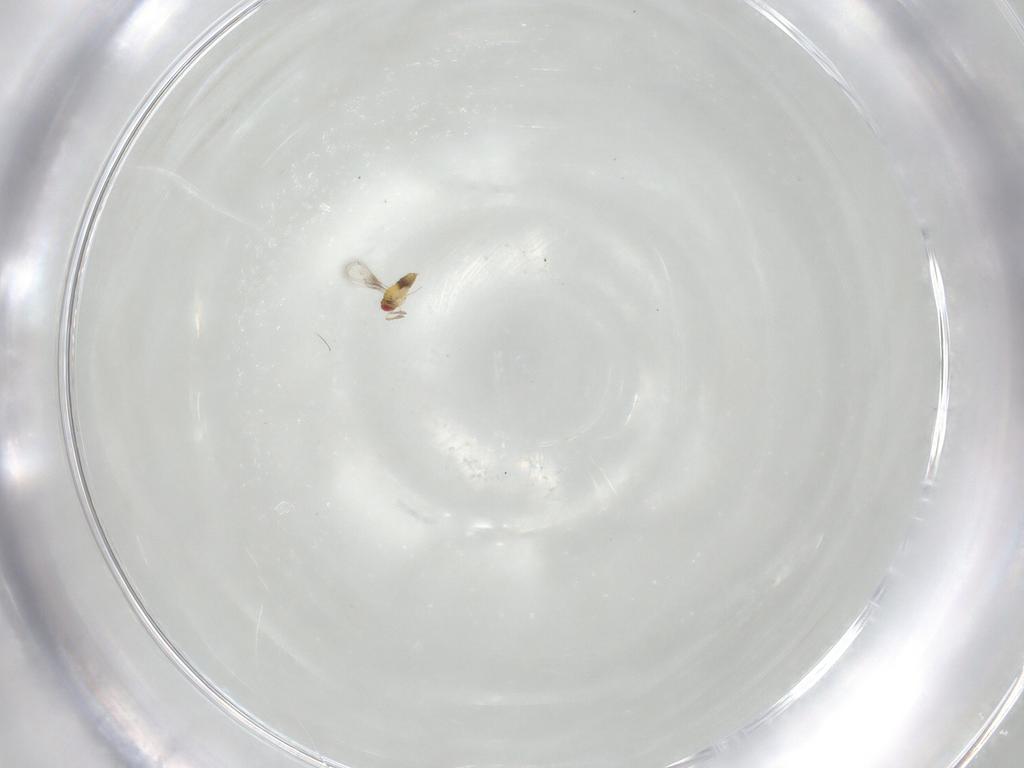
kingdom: Animalia
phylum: Arthropoda
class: Insecta
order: Hymenoptera
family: Trichogrammatidae
